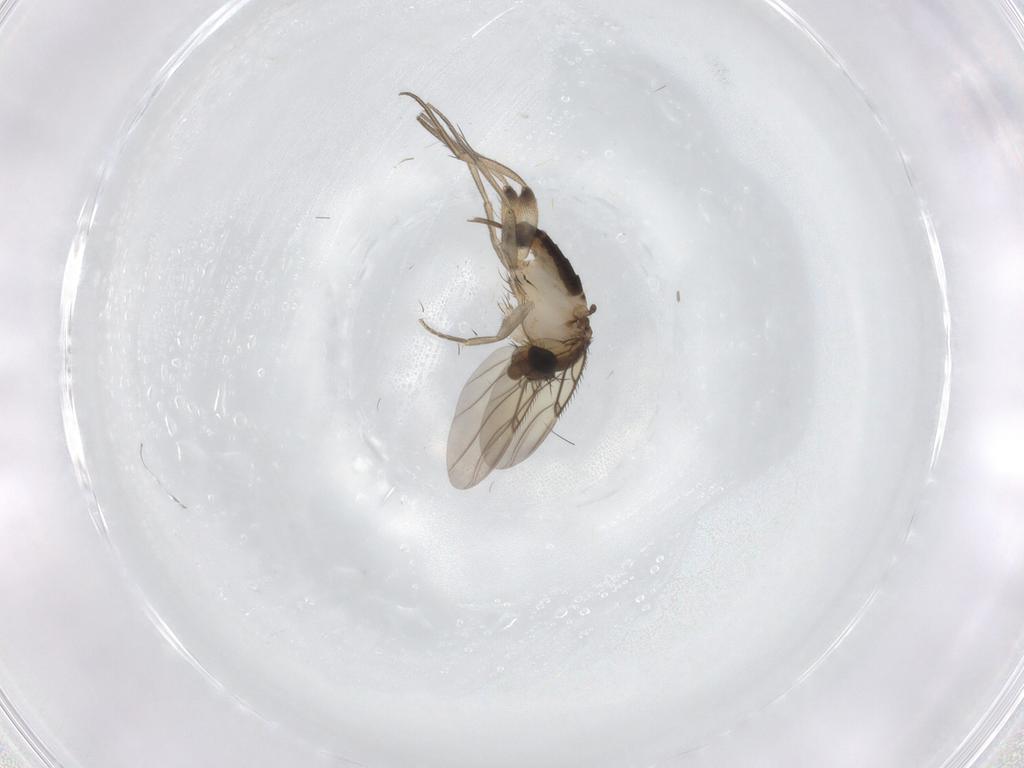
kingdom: Animalia
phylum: Arthropoda
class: Insecta
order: Diptera
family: Phoridae
